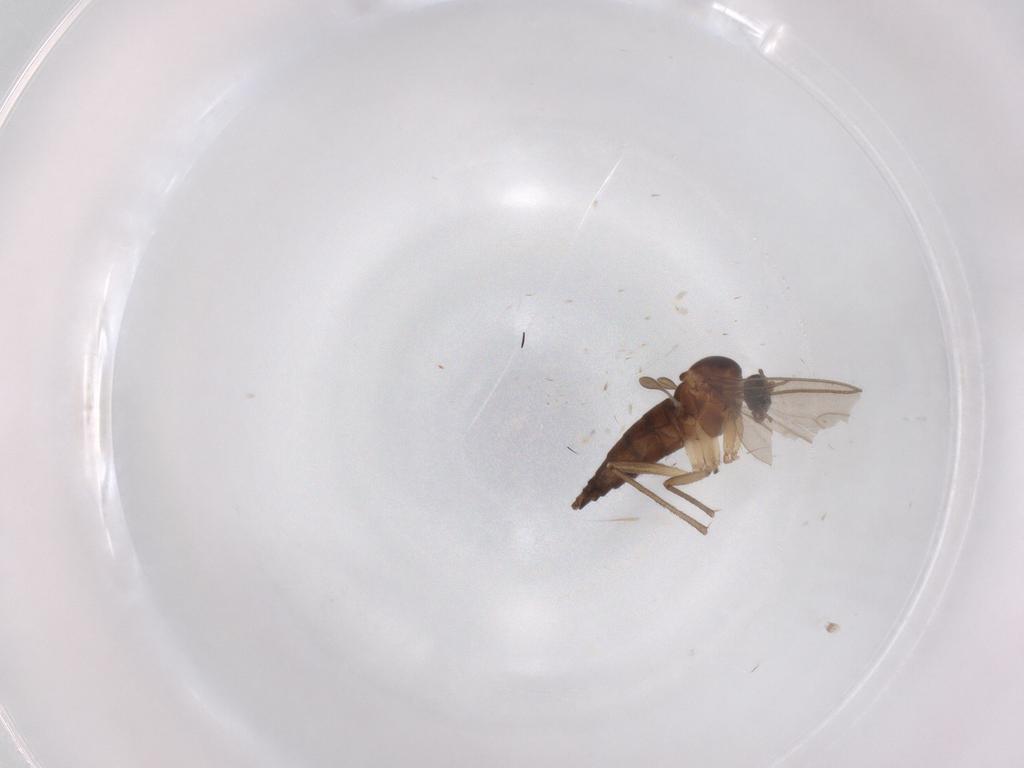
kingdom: Animalia
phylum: Arthropoda
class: Insecta
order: Diptera
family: Sciaridae
